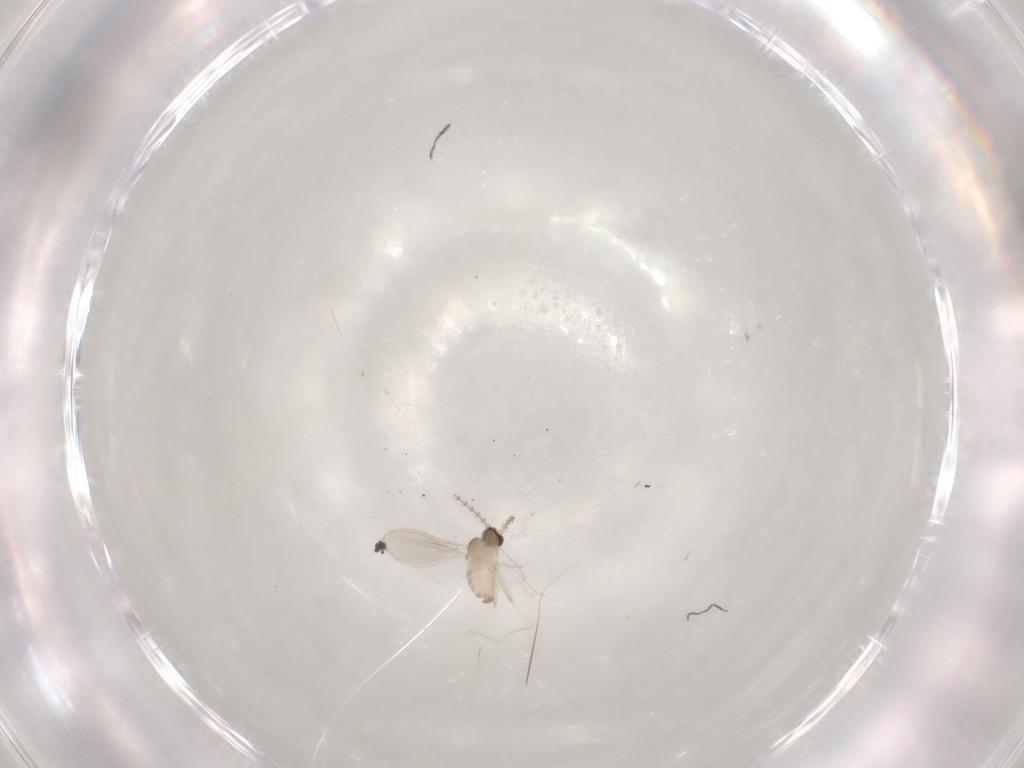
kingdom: Animalia
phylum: Arthropoda
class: Insecta
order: Diptera
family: Cecidomyiidae
